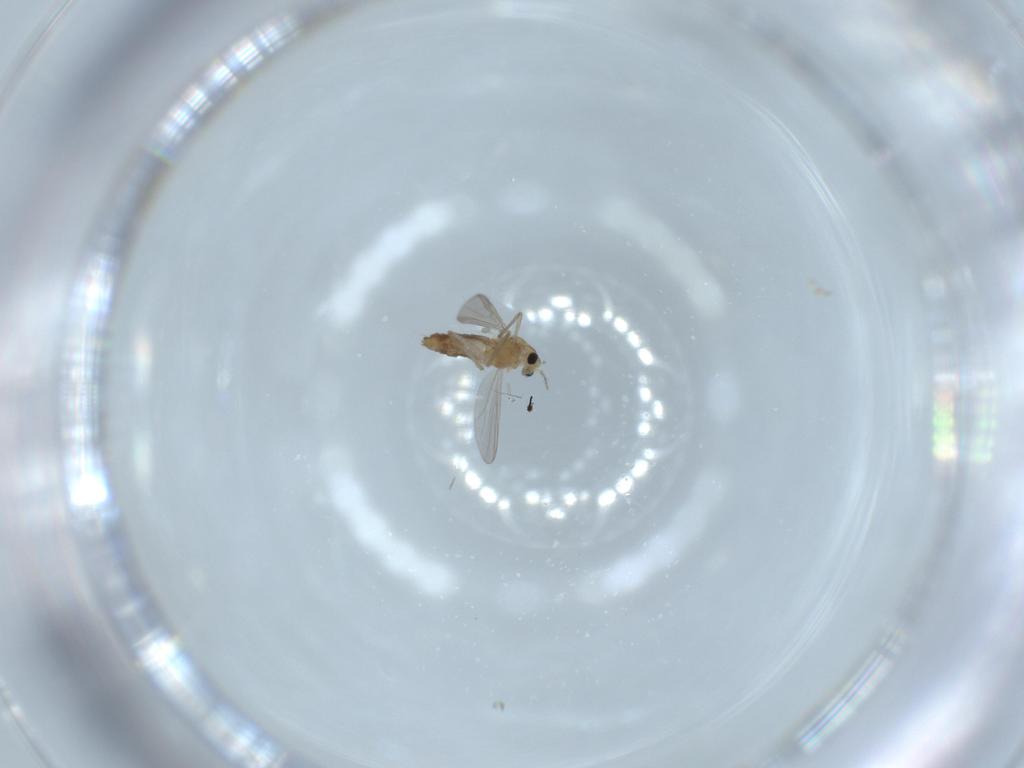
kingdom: Animalia
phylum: Arthropoda
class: Insecta
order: Diptera
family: Chironomidae
